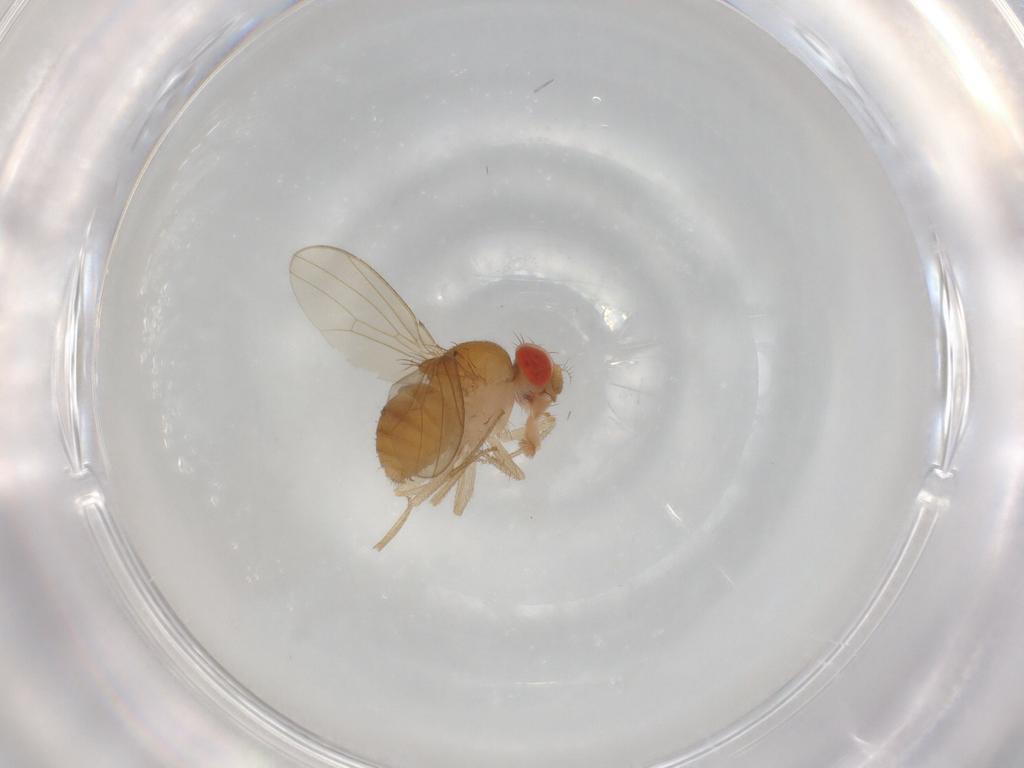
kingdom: Animalia
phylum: Arthropoda
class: Insecta
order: Diptera
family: Drosophilidae
